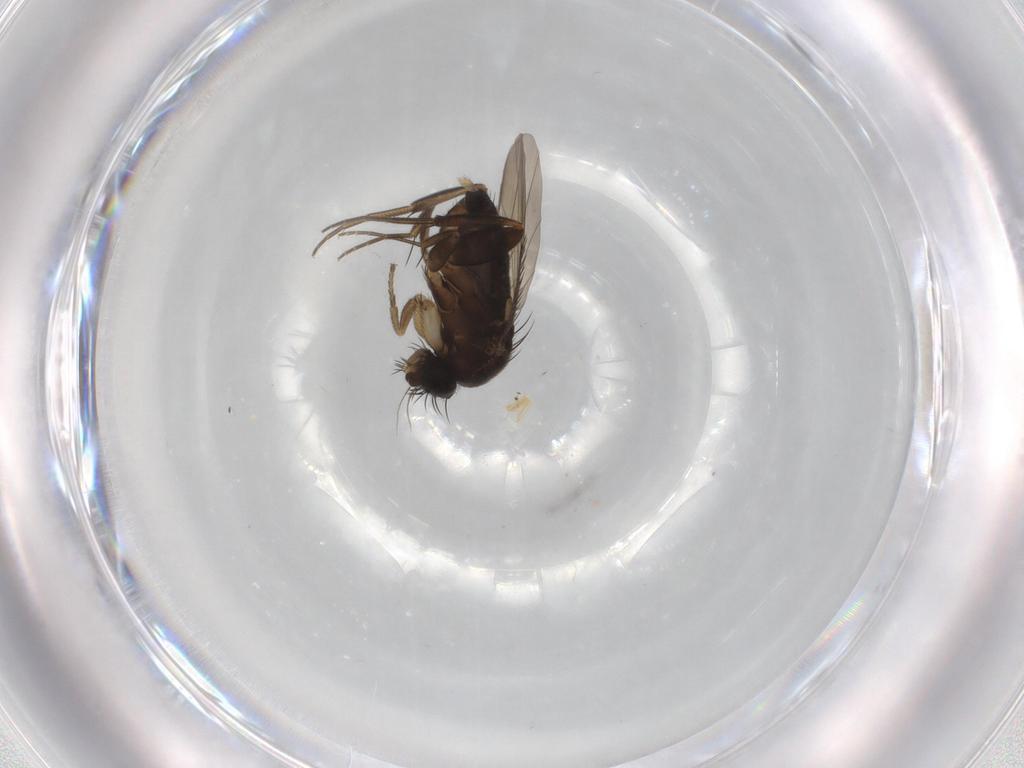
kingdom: Animalia
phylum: Arthropoda
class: Insecta
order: Diptera
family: Phoridae
